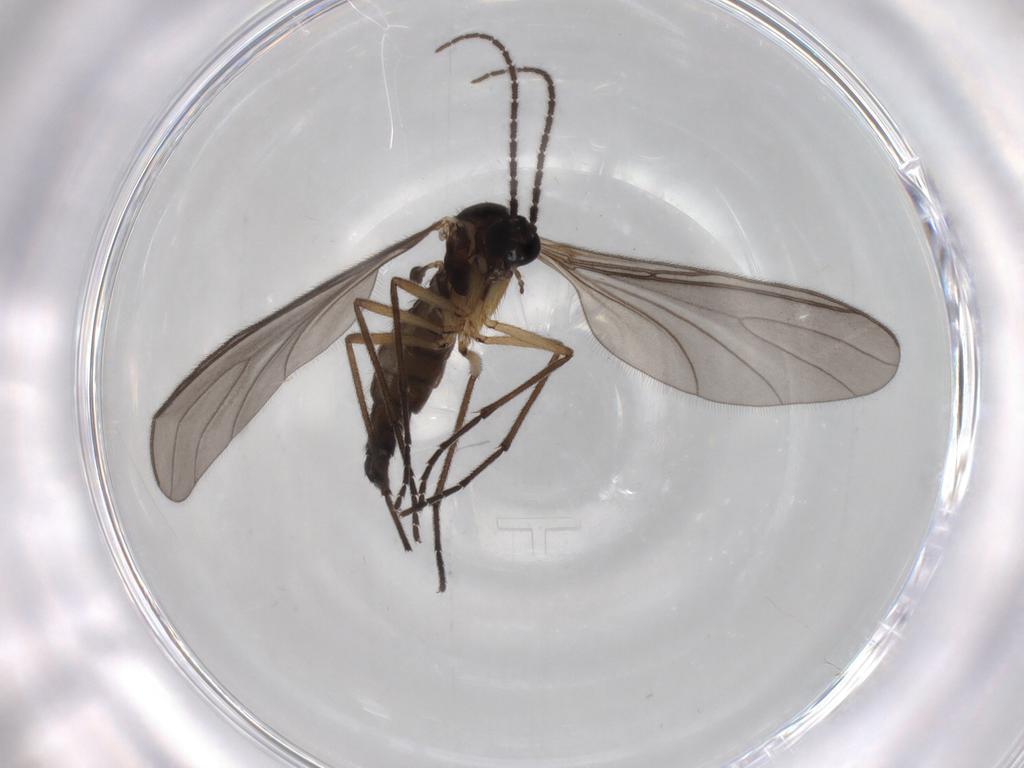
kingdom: Animalia
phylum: Arthropoda
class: Insecta
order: Diptera
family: Sciaridae
